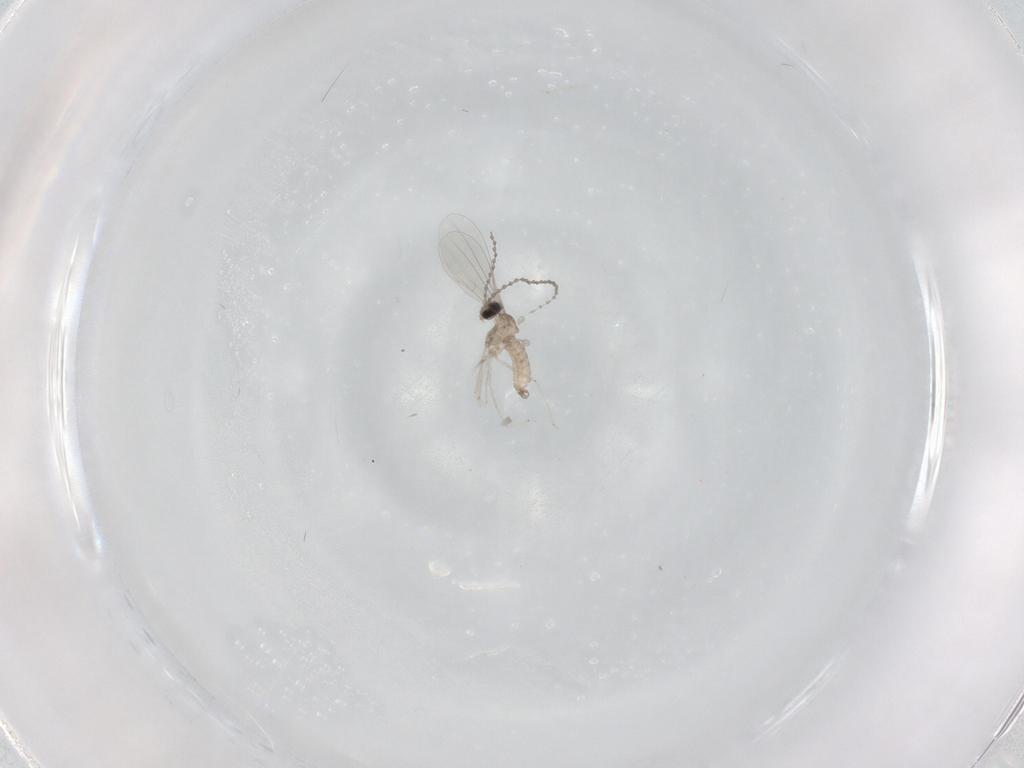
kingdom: Animalia
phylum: Arthropoda
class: Insecta
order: Diptera
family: Cecidomyiidae
